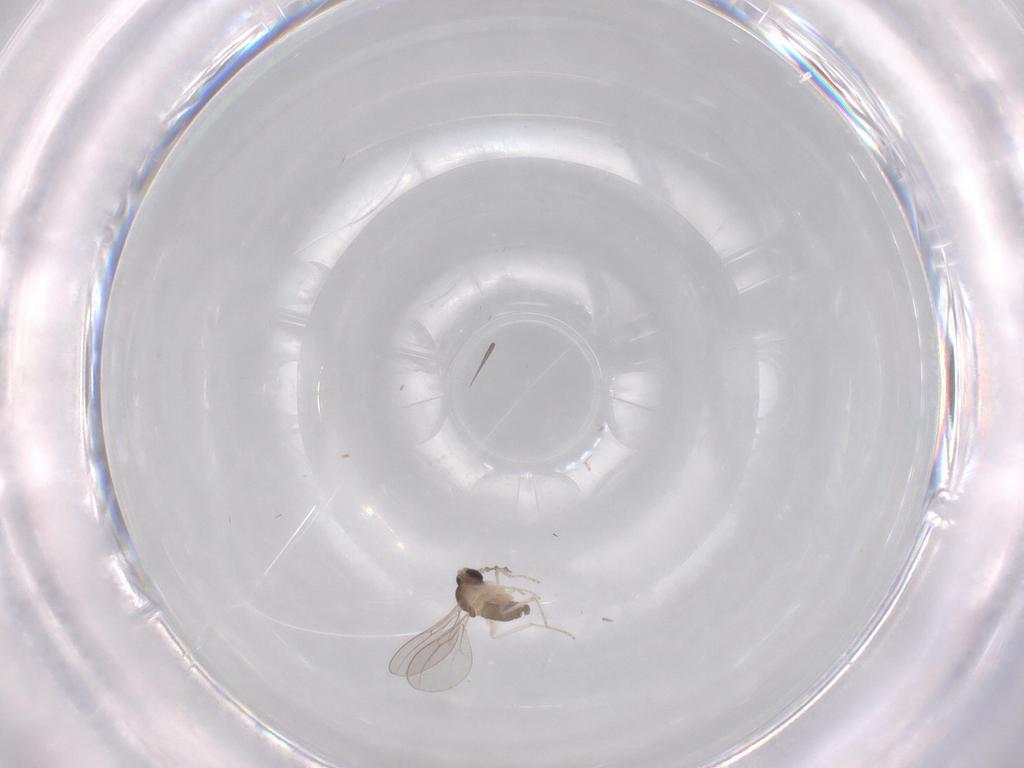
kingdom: Animalia
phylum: Arthropoda
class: Insecta
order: Diptera
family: Cecidomyiidae
